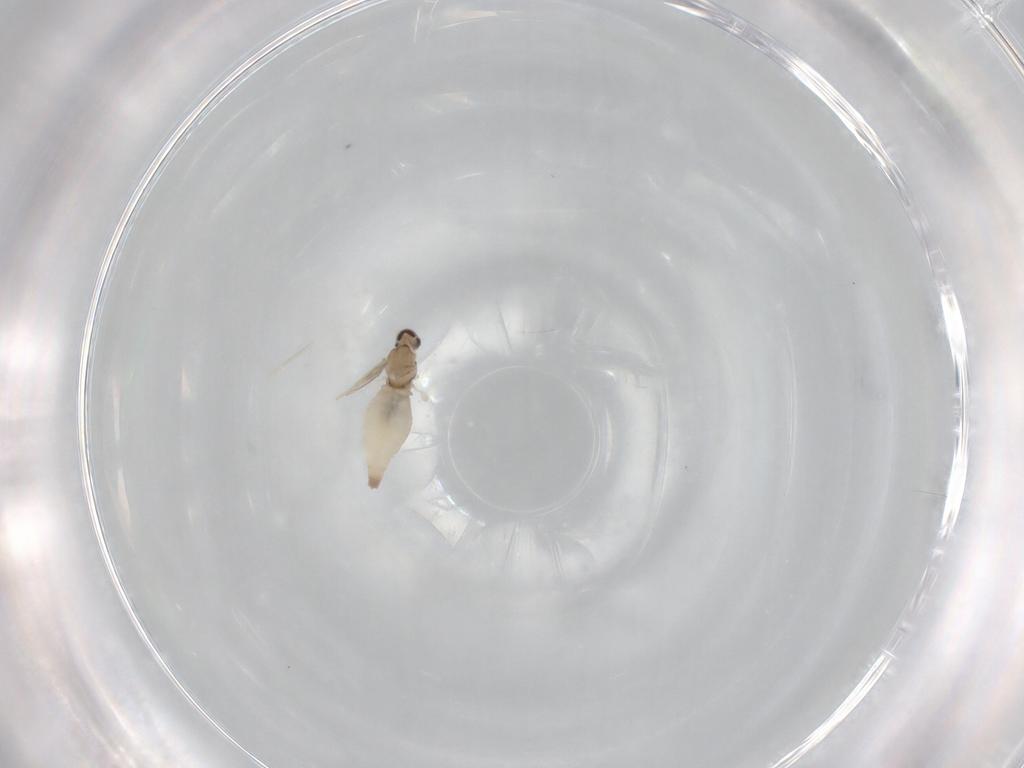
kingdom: Animalia
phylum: Arthropoda
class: Insecta
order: Diptera
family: Cecidomyiidae
